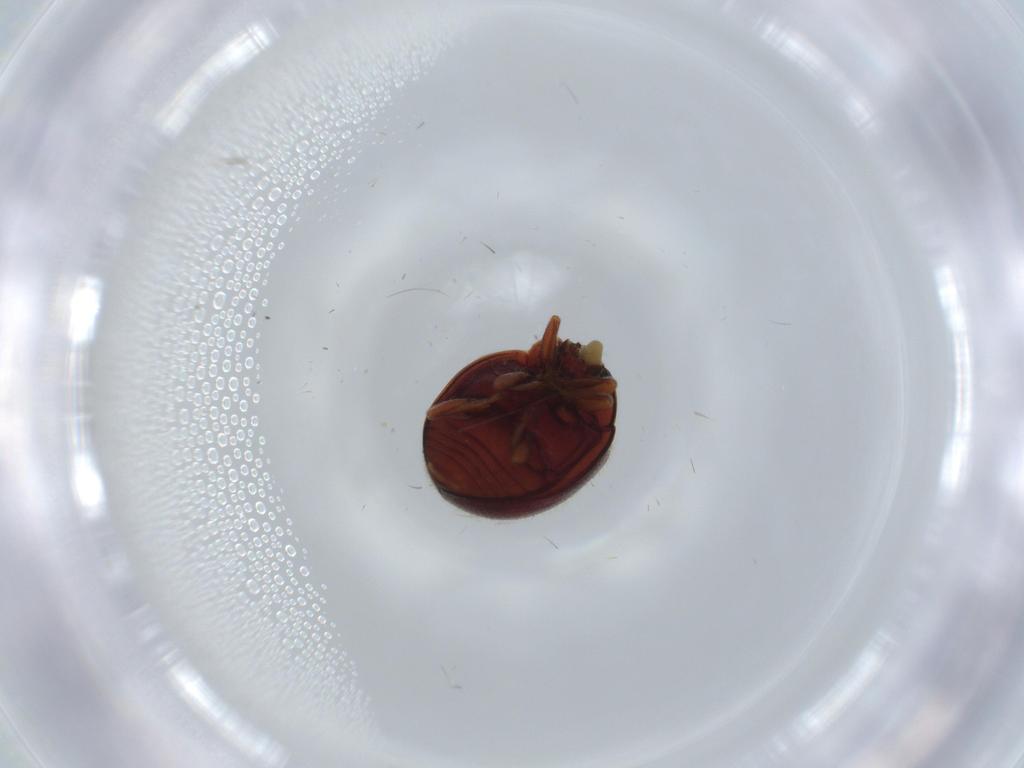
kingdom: Animalia
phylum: Arthropoda
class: Insecta
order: Coleoptera
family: Coccinellidae
